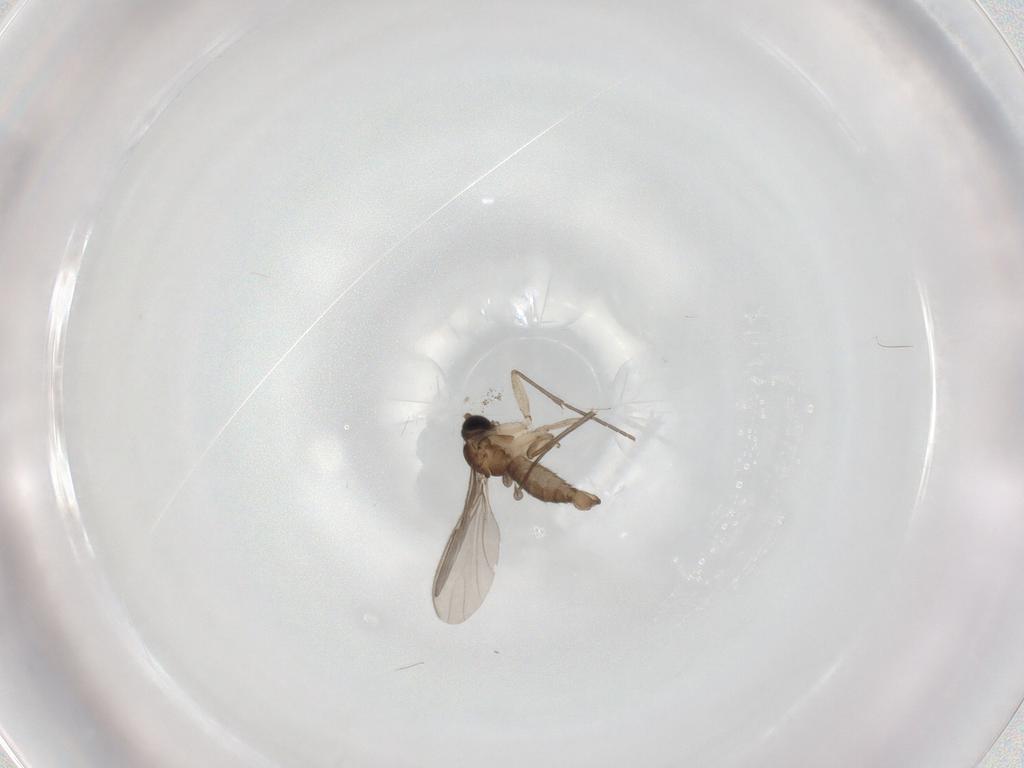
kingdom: Animalia
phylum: Arthropoda
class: Insecta
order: Diptera
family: Sciaridae
